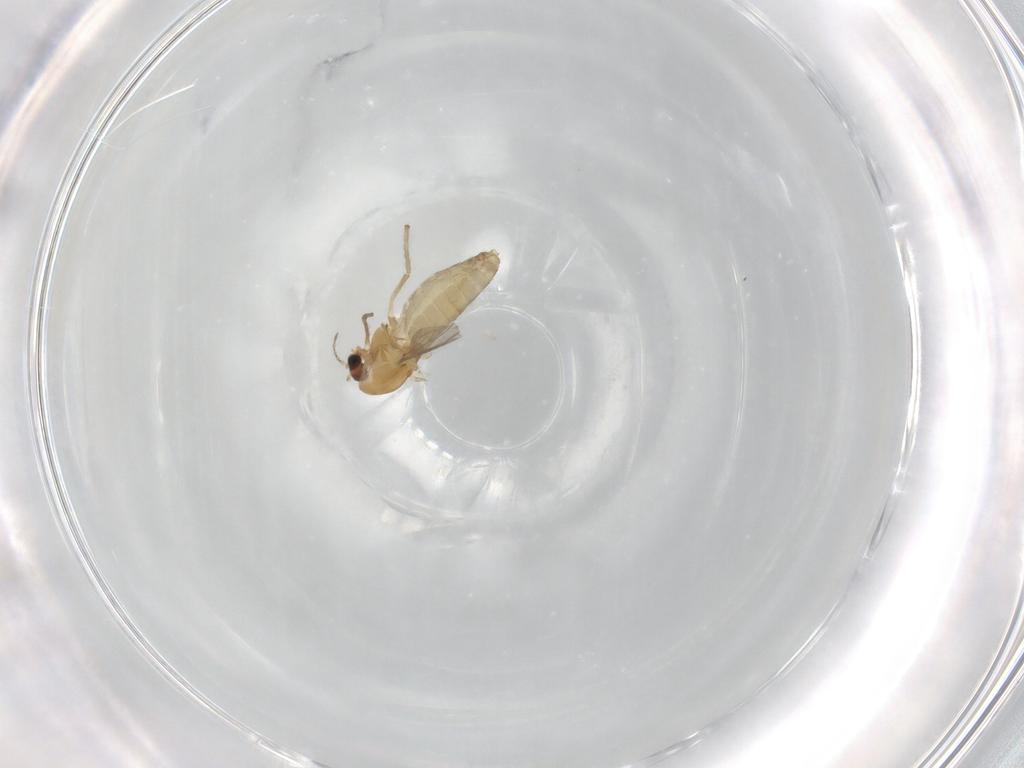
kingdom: Animalia
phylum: Arthropoda
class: Insecta
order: Diptera
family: Chironomidae
